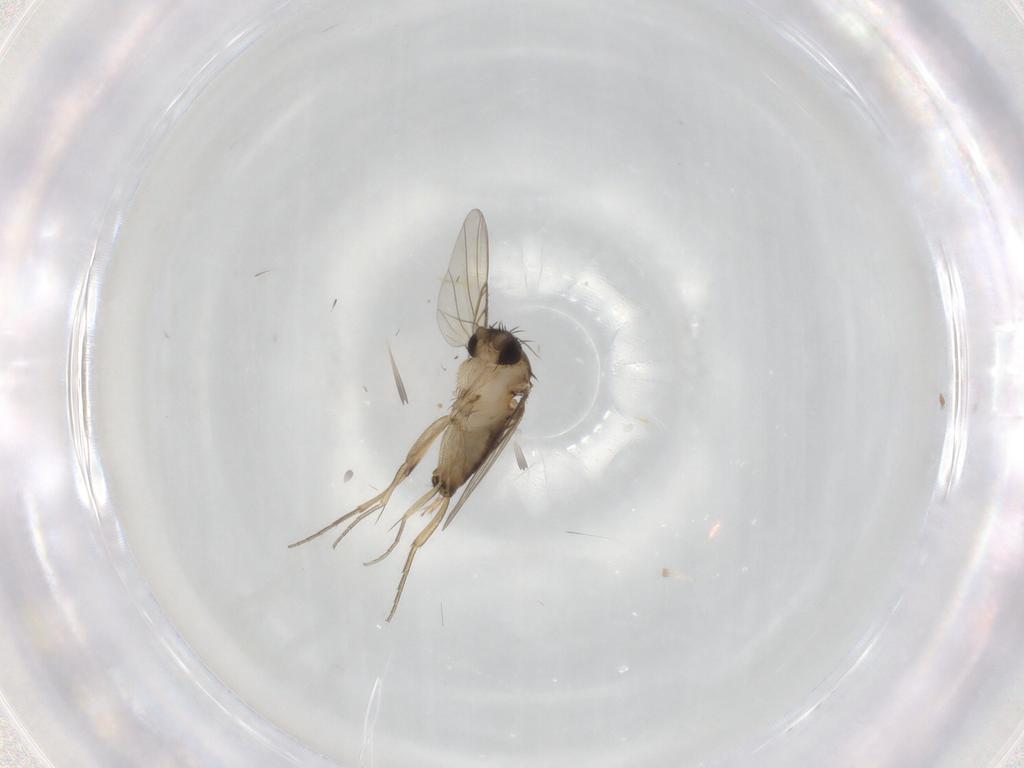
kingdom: Animalia
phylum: Arthropoda
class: Insecta
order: Diptera
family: Phoridae
